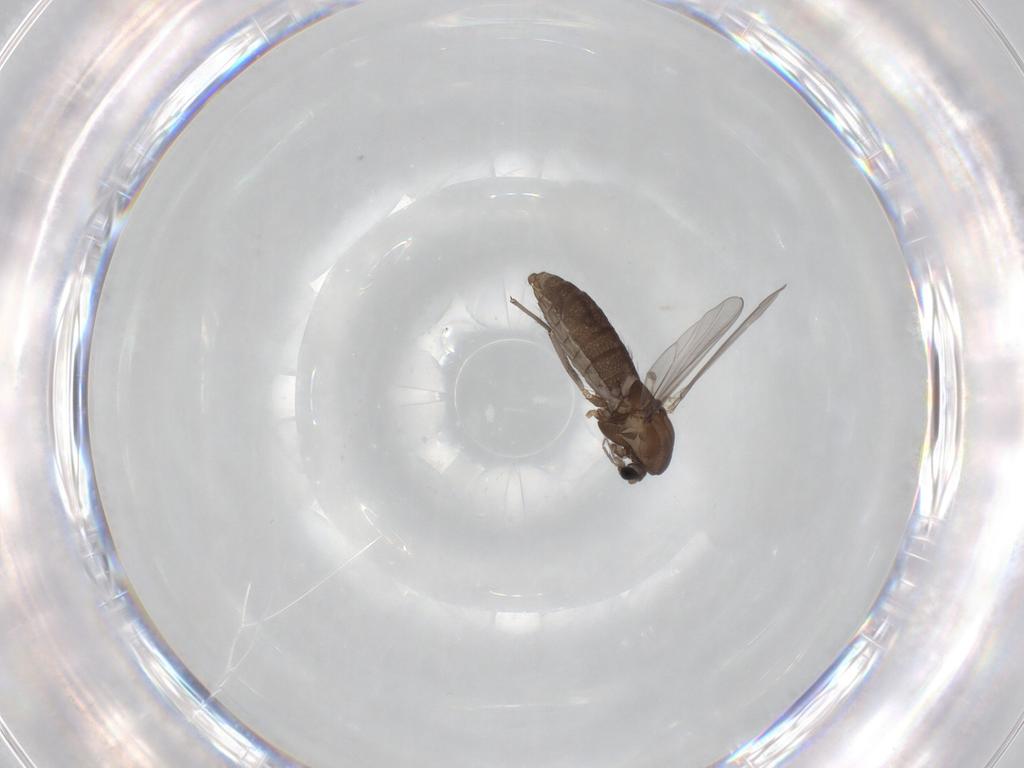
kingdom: Animalia
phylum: Arthropoda
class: Insecta
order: Diptera
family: Chironomidae
